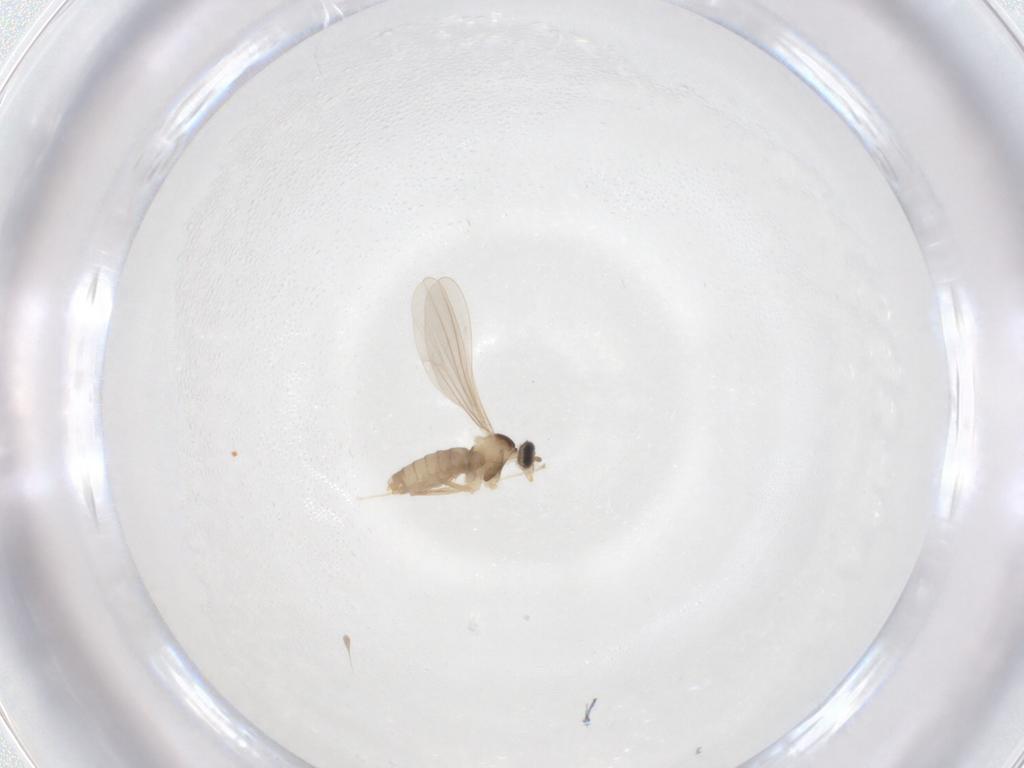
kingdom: Animalia
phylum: Arthropoda
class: Insecta
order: Diptera
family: Cecidomyiidae
